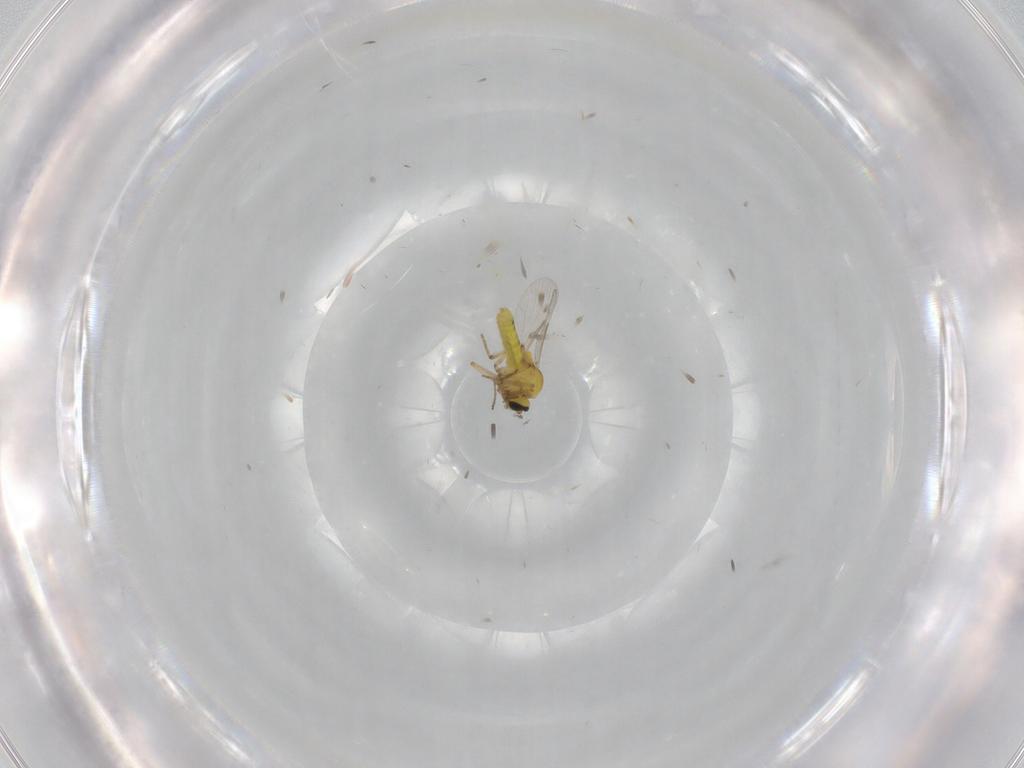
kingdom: Animalia
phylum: Arthropoda
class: Insecta
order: Diptera
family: Ceratopogonidae
